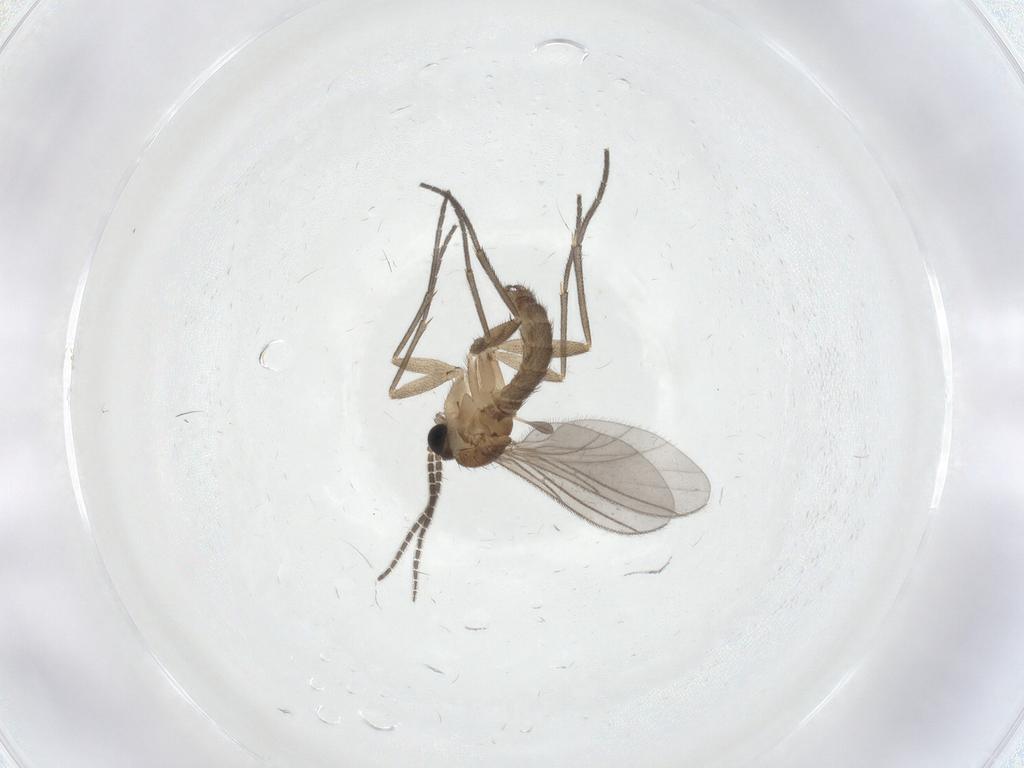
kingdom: Animalia
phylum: Arthropoda
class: Insecta
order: Diptera
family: Sciaridae
